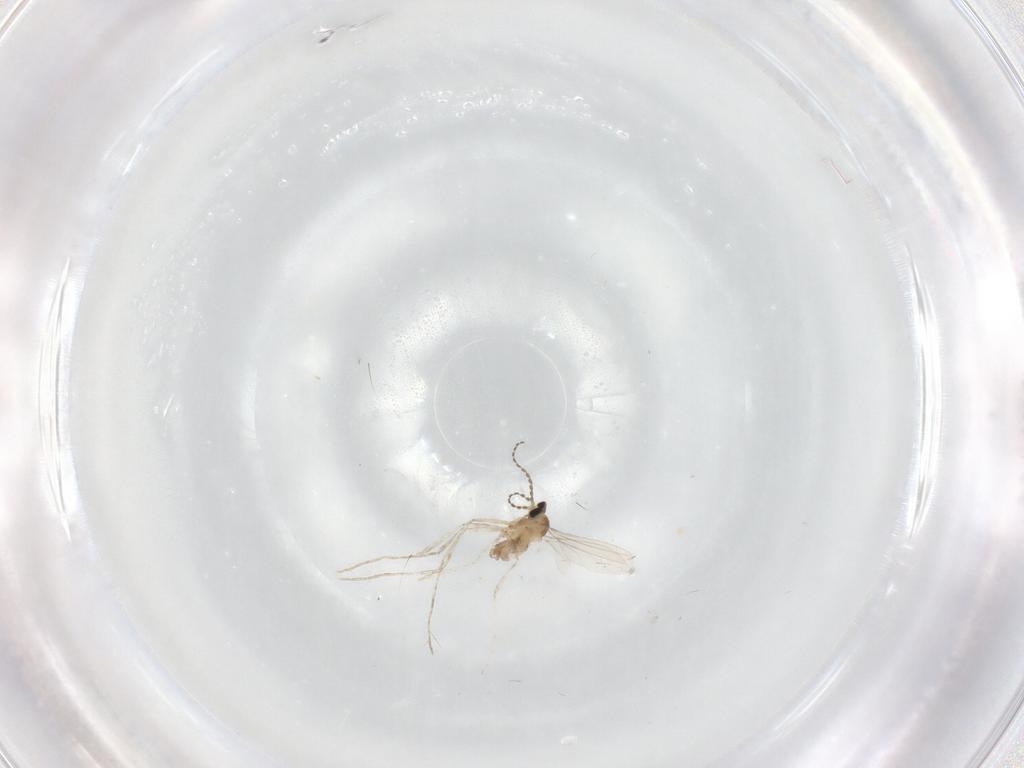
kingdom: Animalia
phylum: Arthropoda
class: Insecta
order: Diptera
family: Cecidomyiidae
